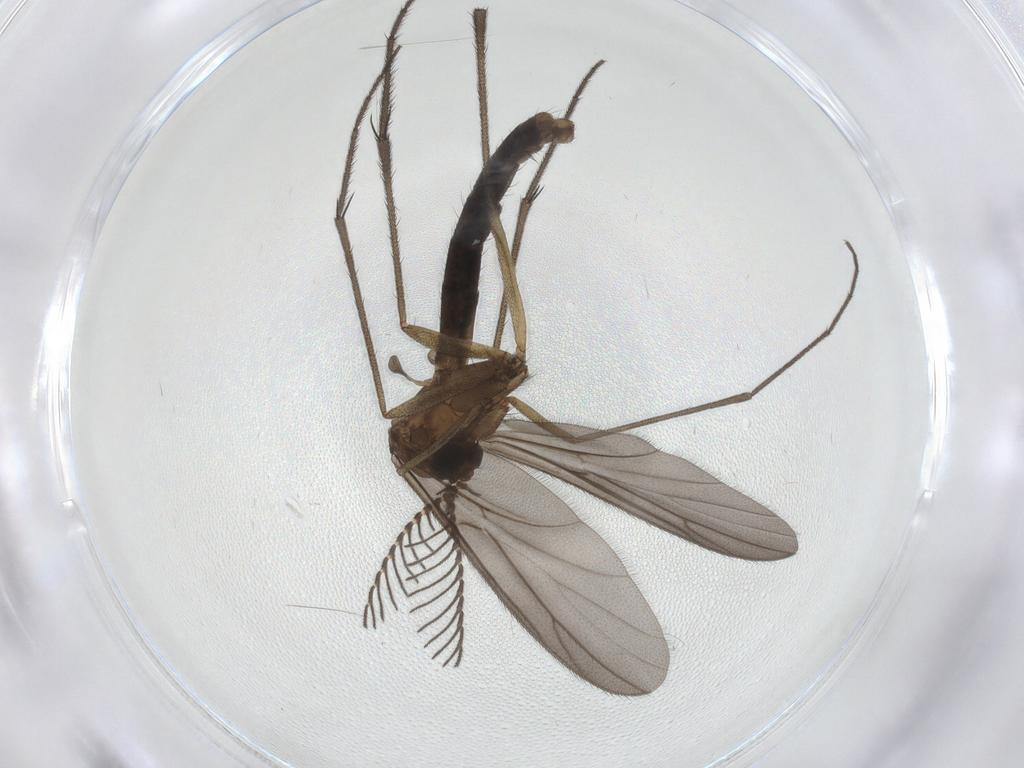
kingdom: Animalia
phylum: Arthropoda
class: Insecta
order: Diptera
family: Ditomyiidae
